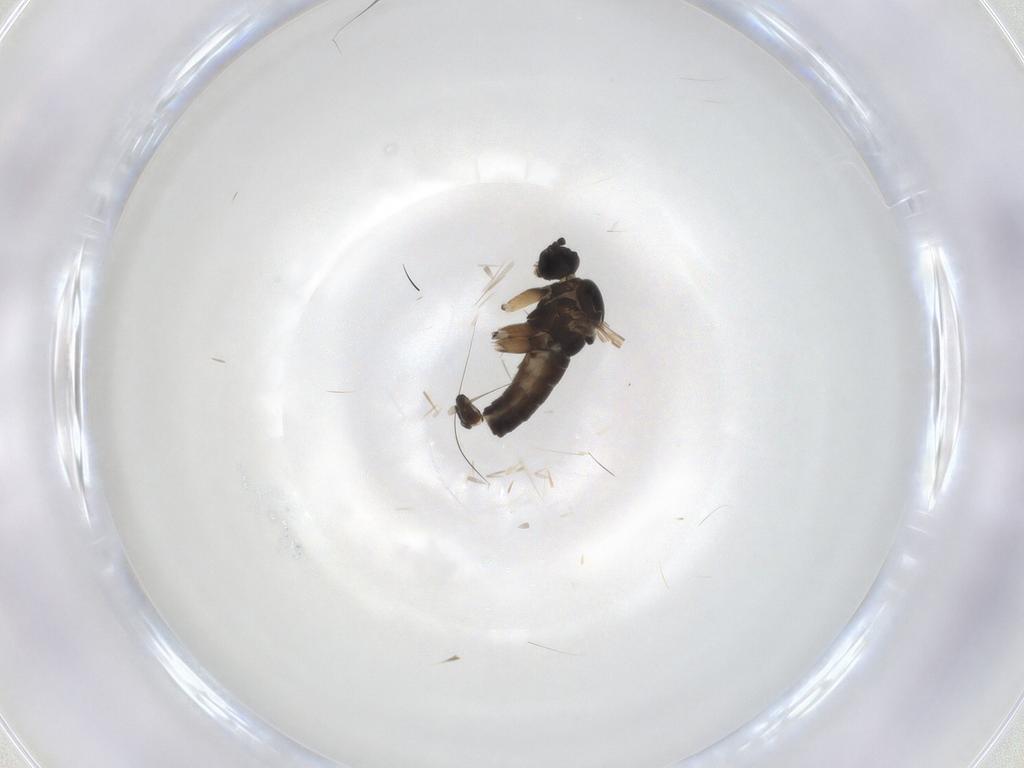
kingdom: Animalia
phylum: Arthropoda
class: Insecta
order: Diptera
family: Sciaridae
